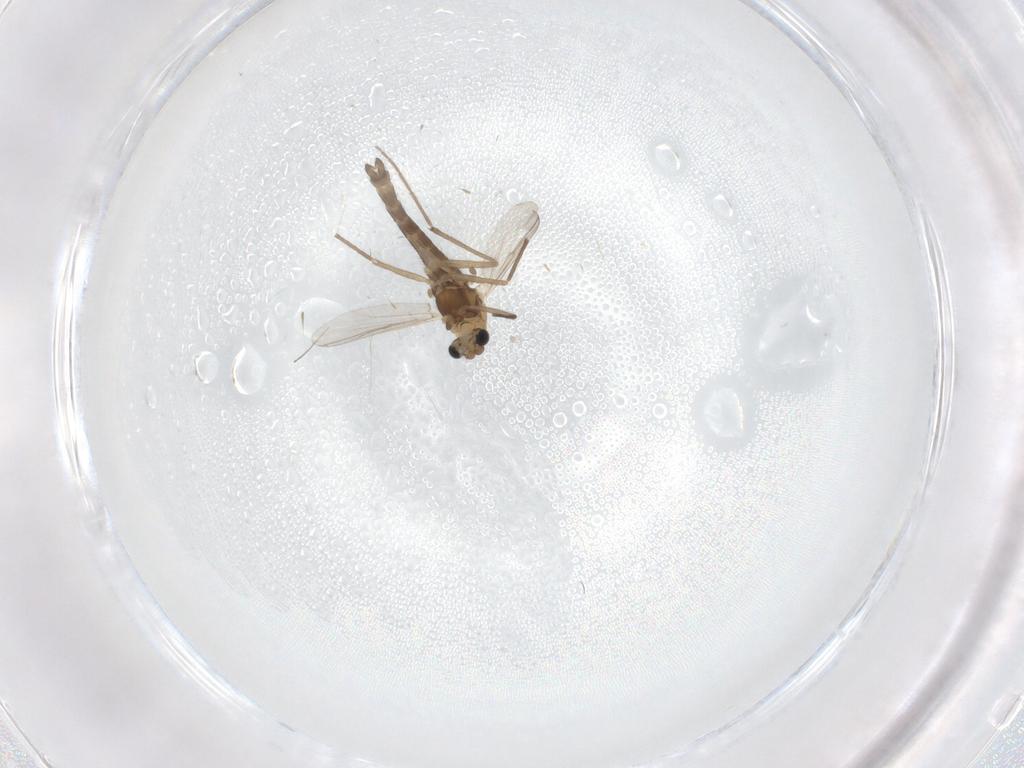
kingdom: Animalia
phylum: Arthropoda
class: Insecta
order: Diptera
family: Chironomidae
